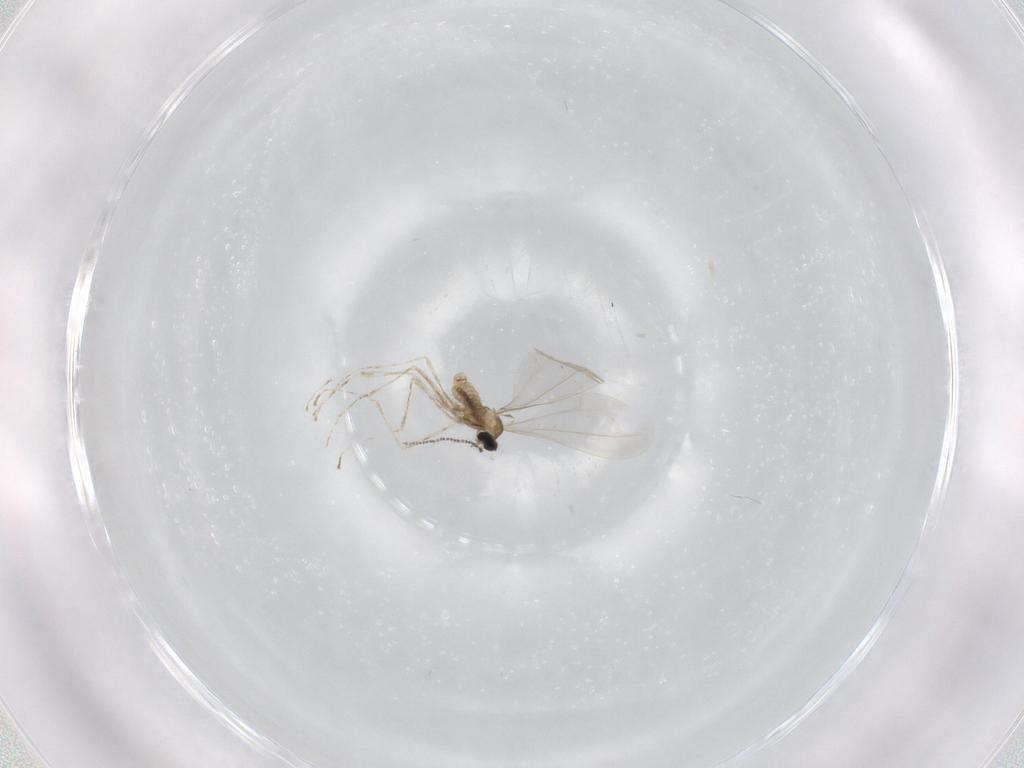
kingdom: Animalia
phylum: Arthropoda
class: Insecta
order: Diptera
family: Cecidomyiidae
